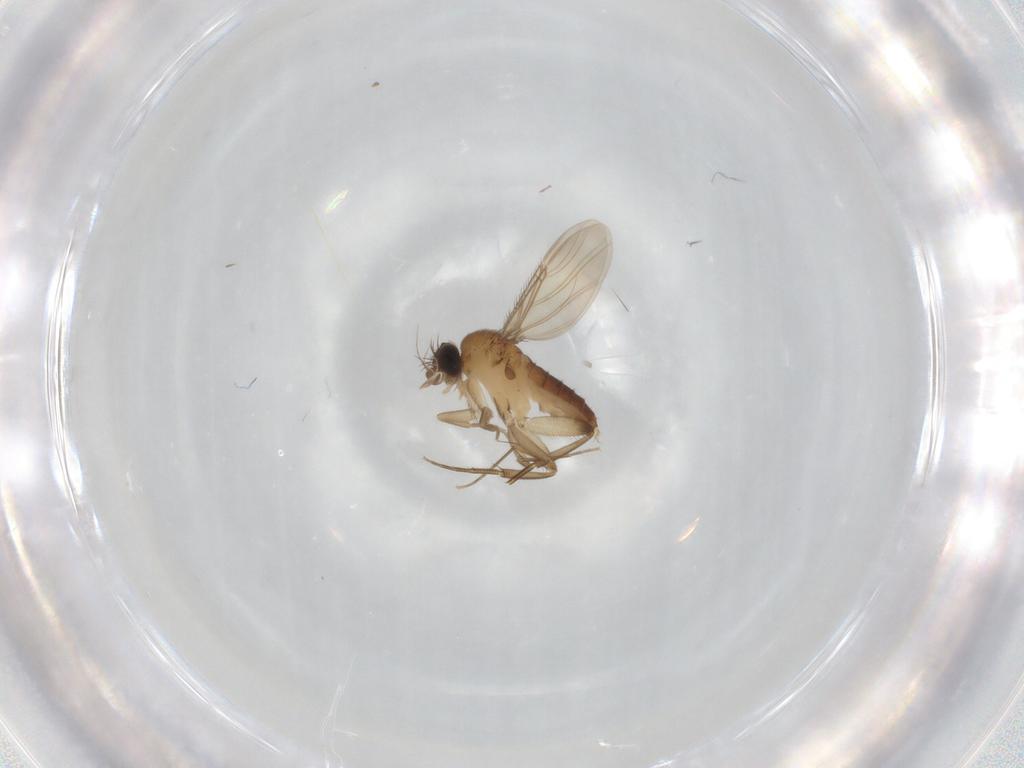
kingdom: Animalia
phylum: Arthropoda
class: Insecta
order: Diptera
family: Phoridae
